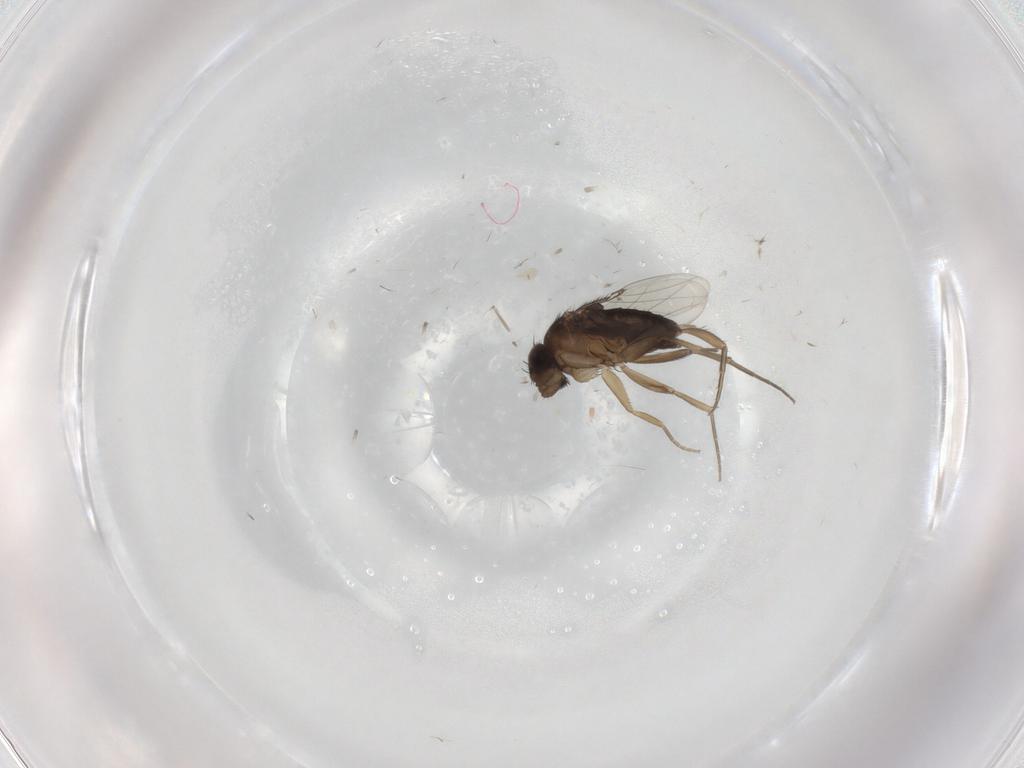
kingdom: Animalia
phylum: Arthropoda
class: Insecta
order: Diptera
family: Phoridae
